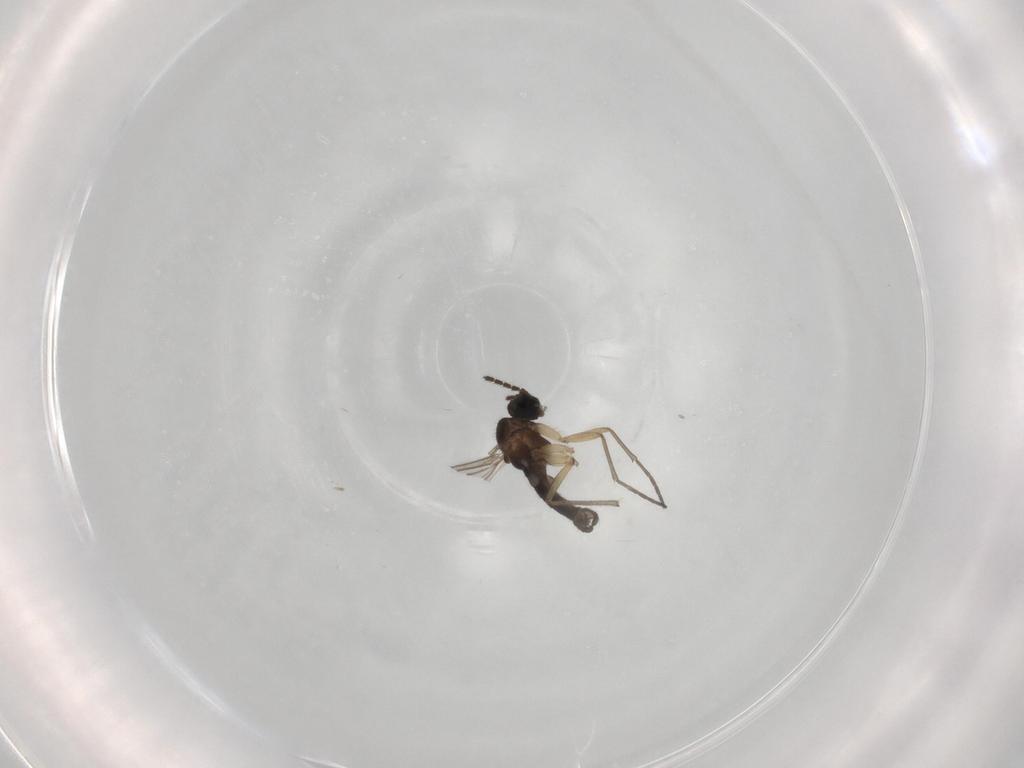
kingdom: Animalia
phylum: Arthropoda
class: Insecta
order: Diptera
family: Sciaridae
